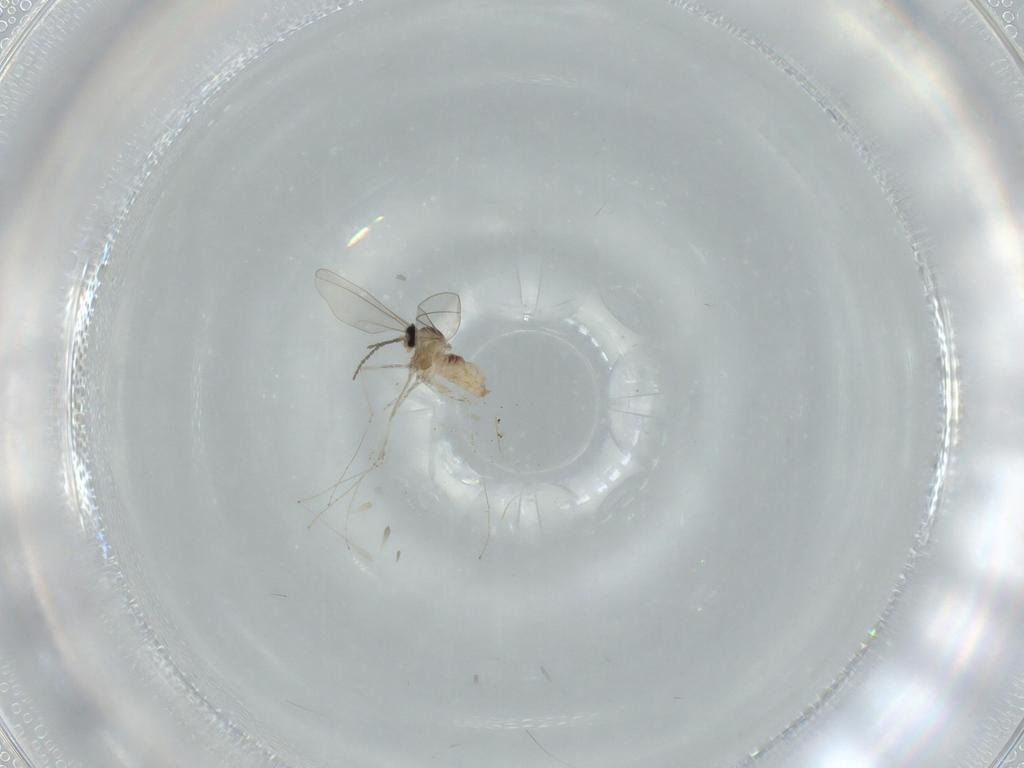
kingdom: Animalia
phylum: Arthropoda
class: Insecta
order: Diptera
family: Cecidomyiidae
